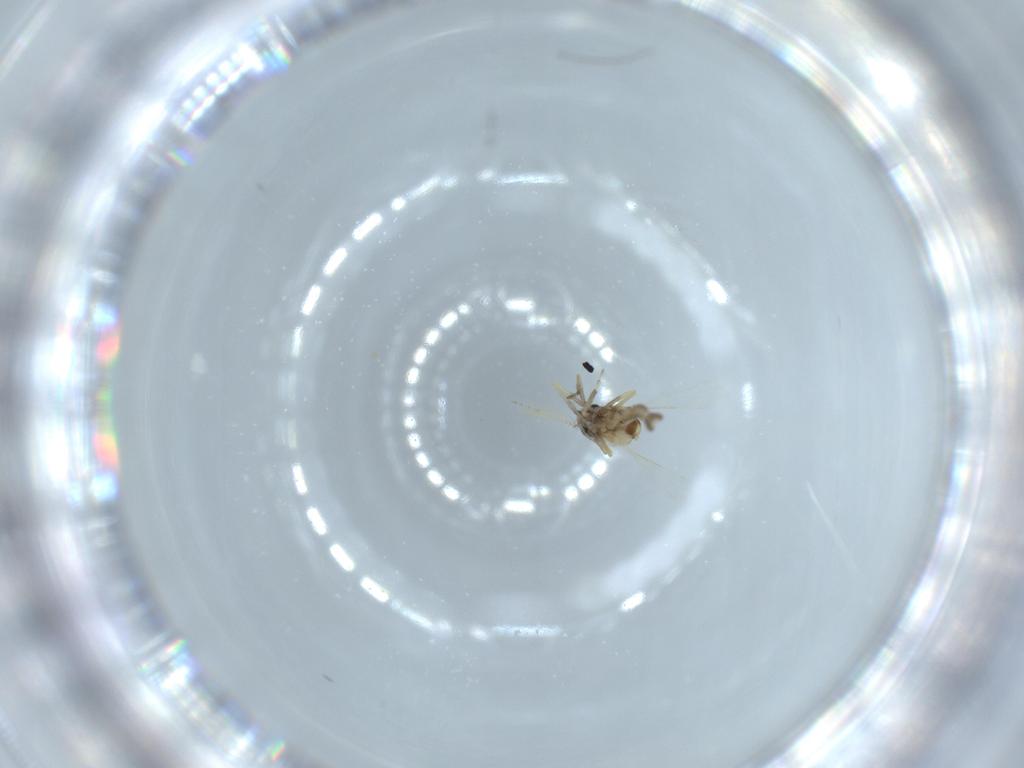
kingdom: Animalia
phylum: Arthropoda
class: Insecta
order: Diptera
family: Ceratopogonidae
